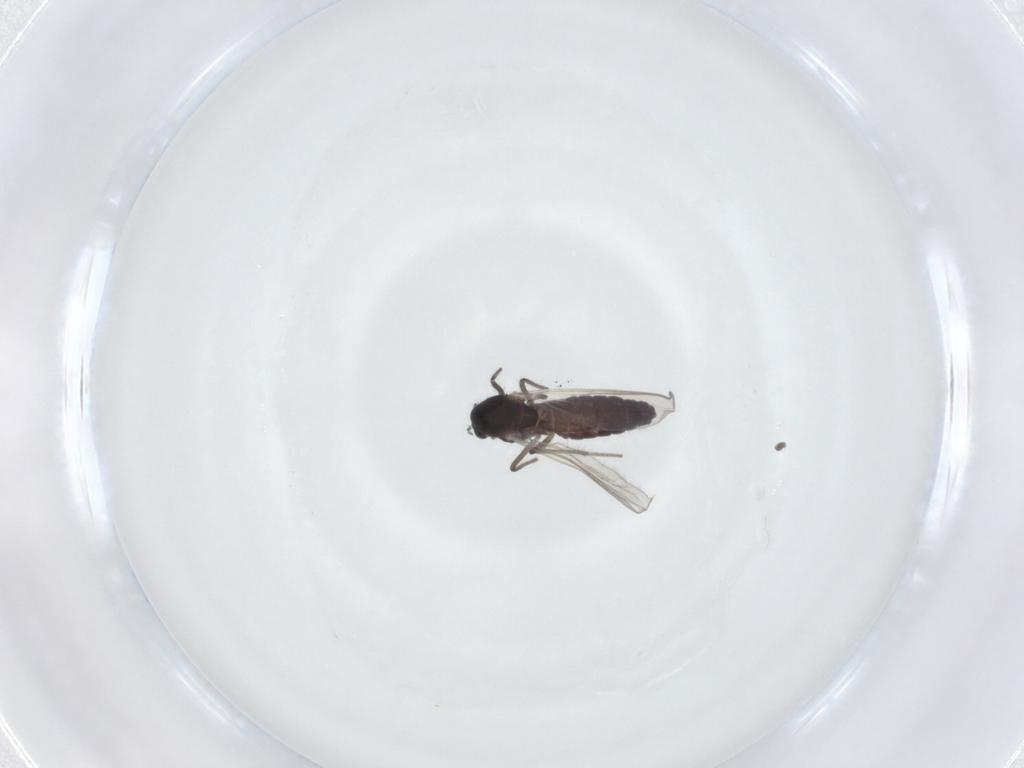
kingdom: Animalia
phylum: Arthropoda
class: Insecta
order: Diptera
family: Chironomidae
